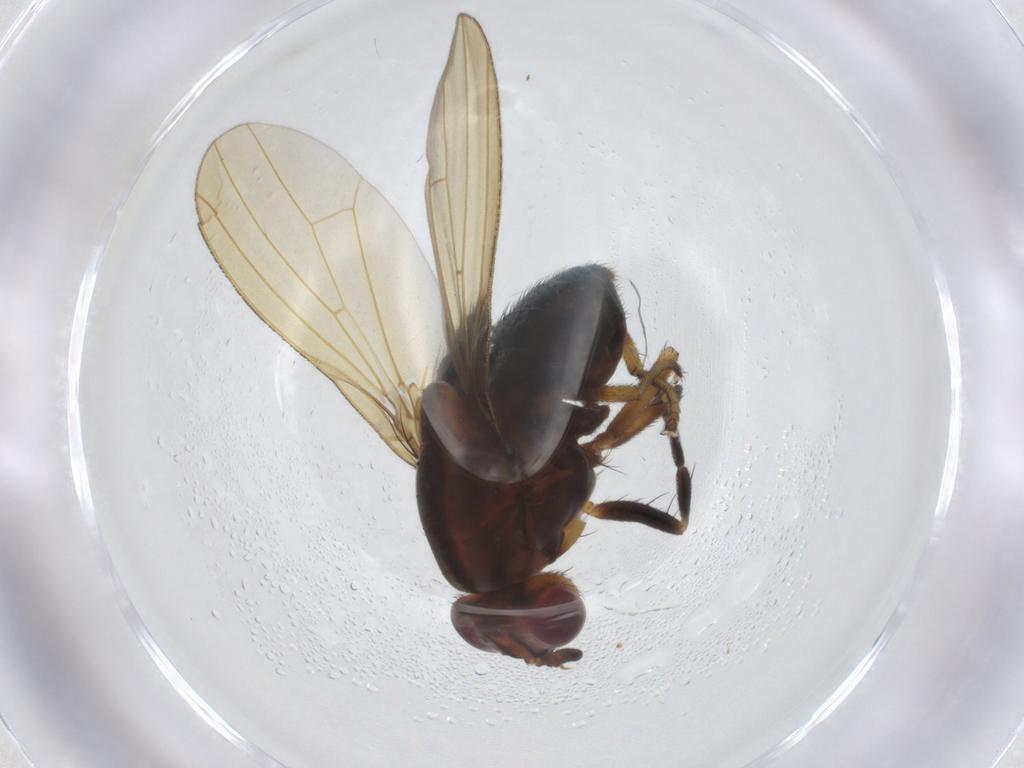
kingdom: Animalia
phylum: Arthropoda
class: Insecta
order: Diptera
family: Lauxaniidae
